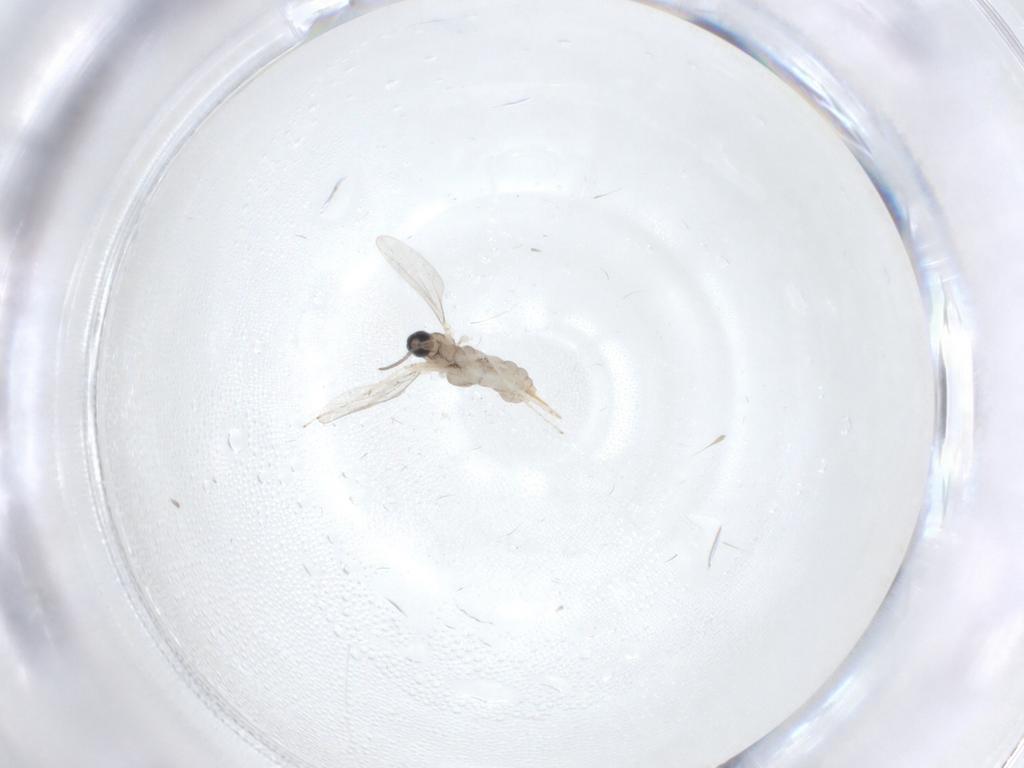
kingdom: Animalia
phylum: Arthropoda
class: Insecta
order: Diptera
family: Cecidomyiidae
